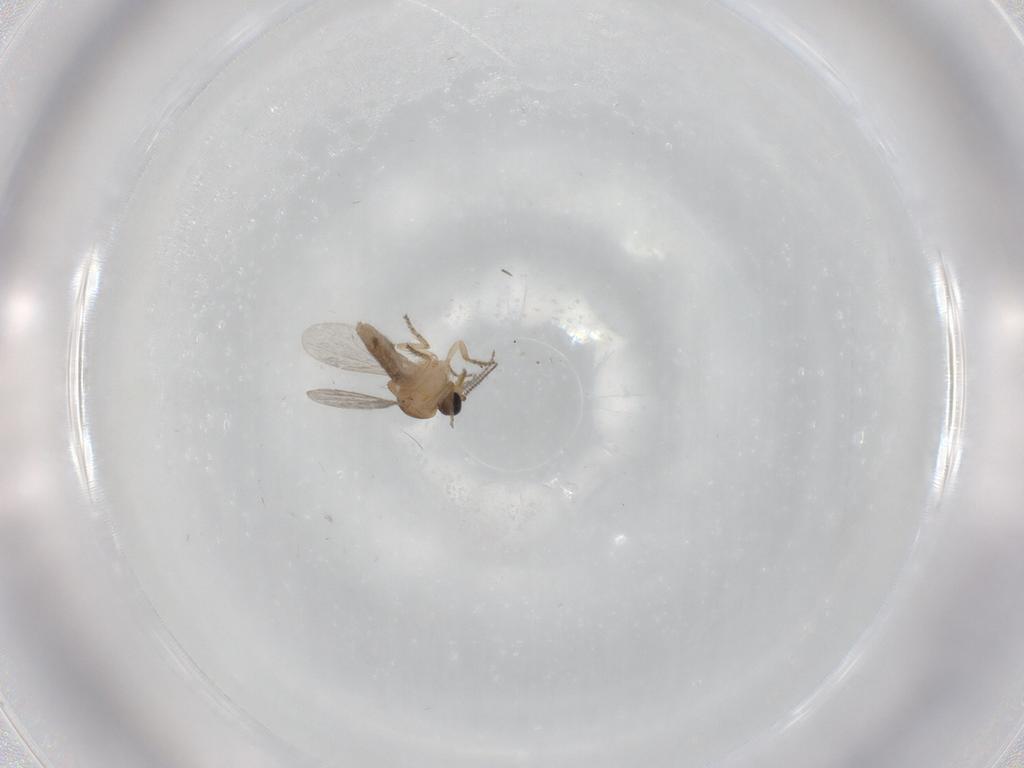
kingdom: Animalia
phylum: Arthropoda
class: Insecta
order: Diptera
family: Ceratopogonidae
